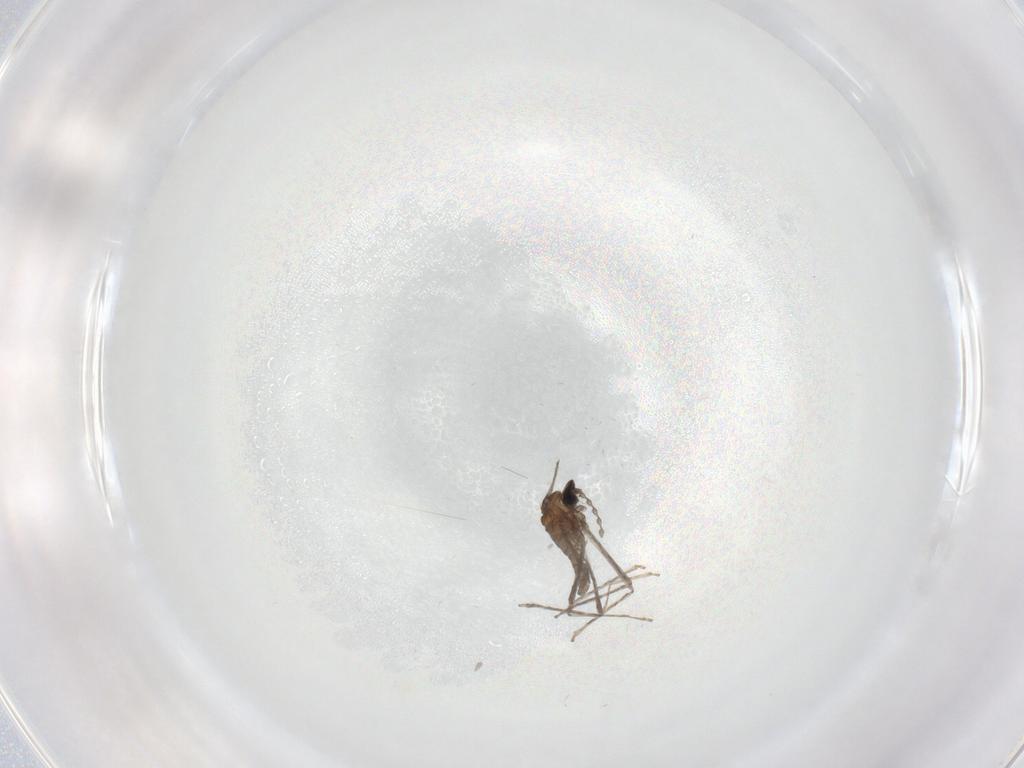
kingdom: Animalia
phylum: Arthropoda
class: Insecta
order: Diptera
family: Cecidomyiidae
